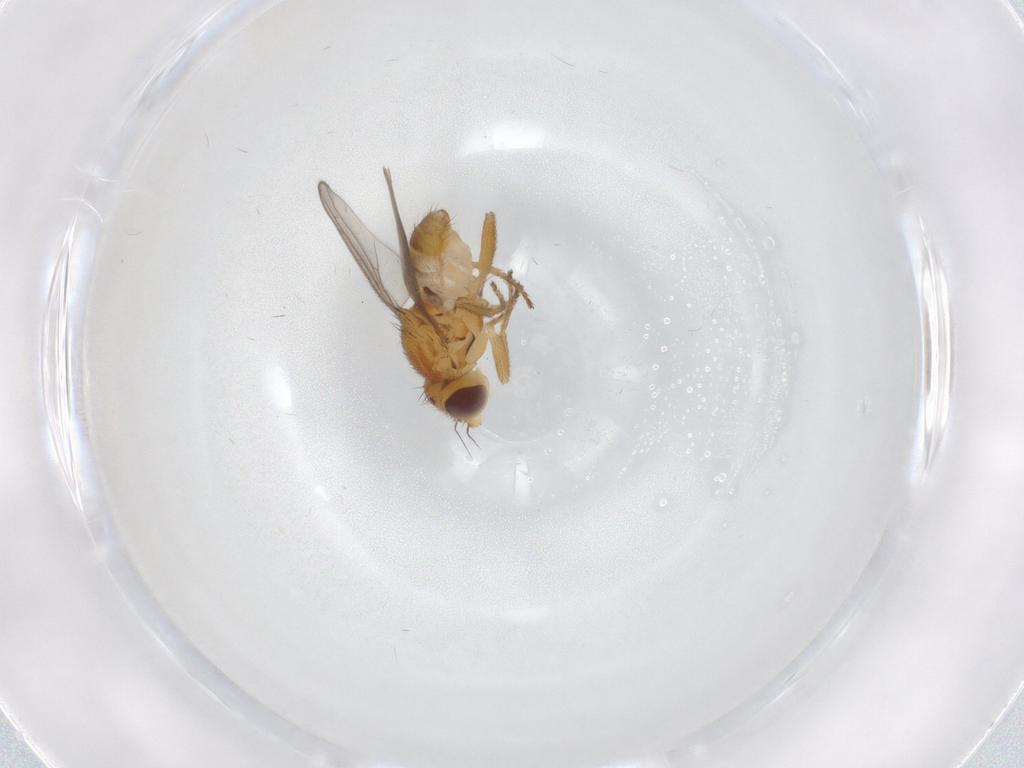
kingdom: Animalia
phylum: Arthropoda
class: Insecta
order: Diptera
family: Chloropidae
